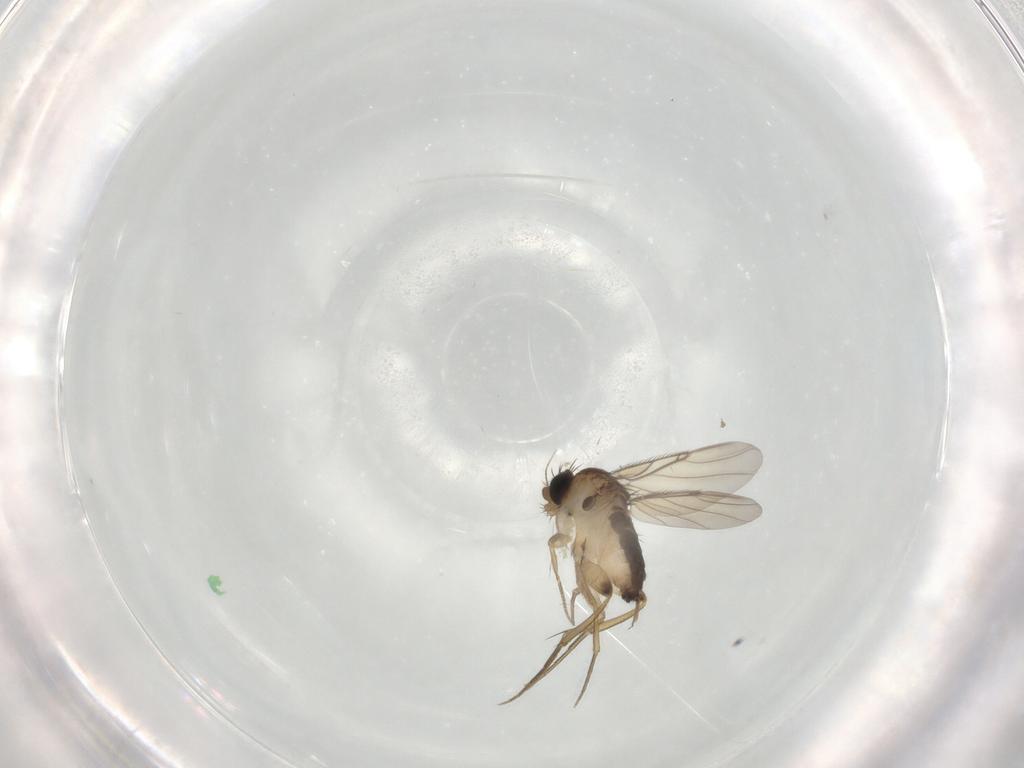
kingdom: Animalia
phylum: Arthropoda
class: Insecta
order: Diptera
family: Phoridae
